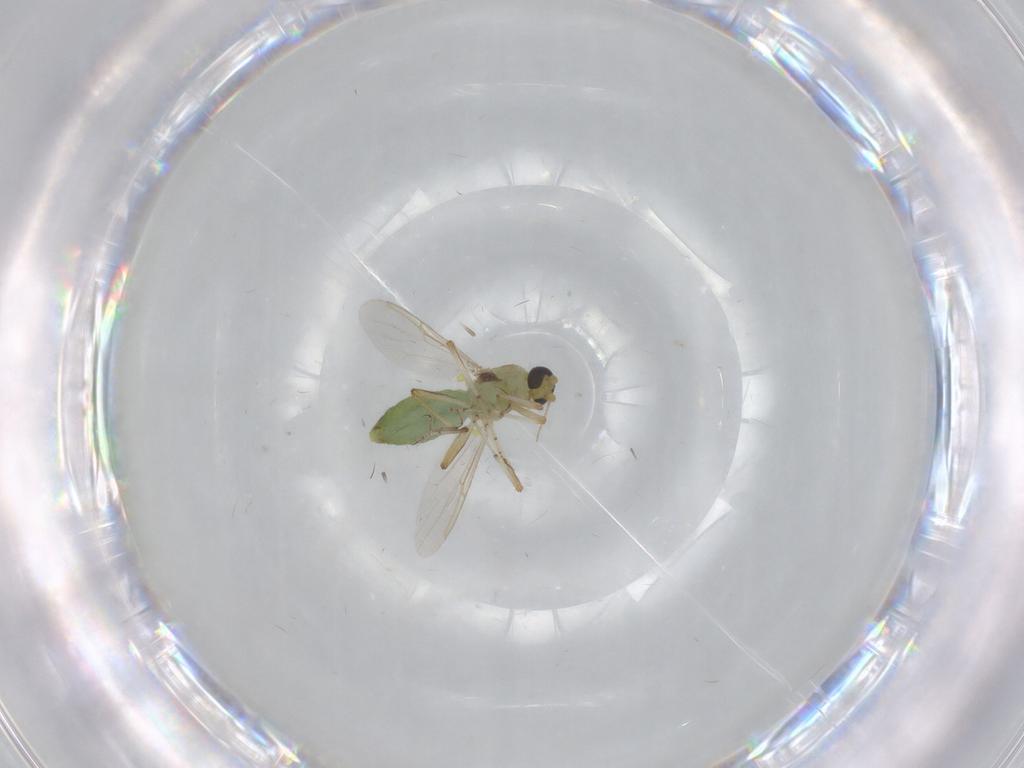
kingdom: Animalia
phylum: Arthropoda
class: Insecta
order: Diptera
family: Ceratopogonidae
